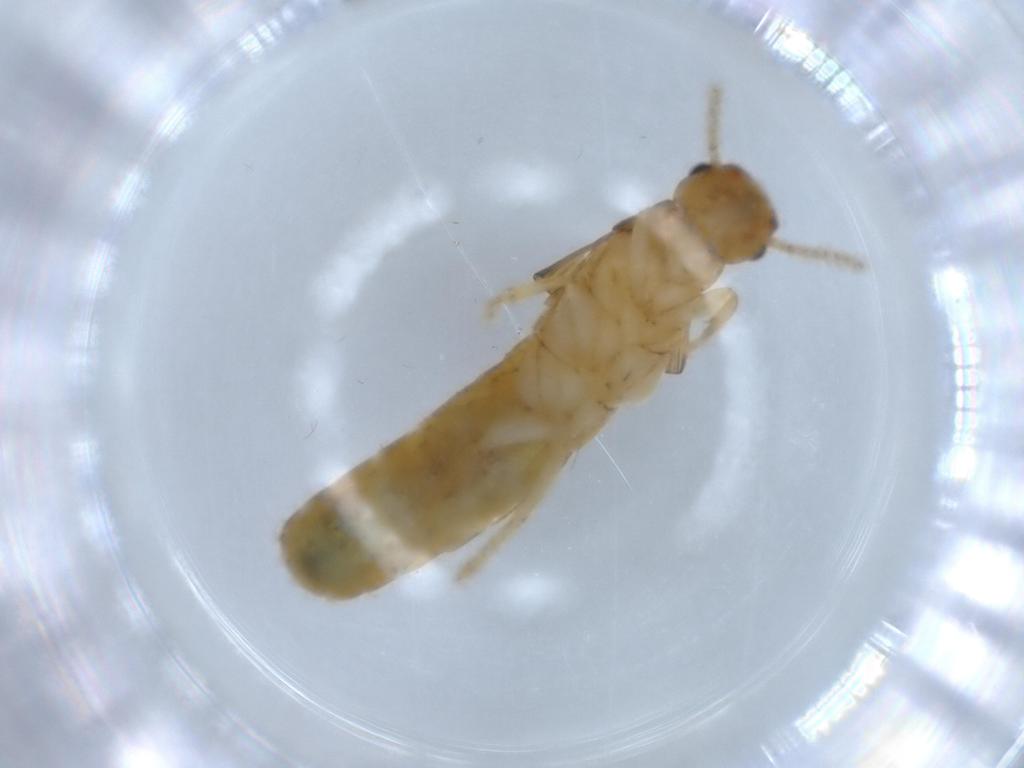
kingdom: Animalia
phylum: Arthropoda
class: Insecta
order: Blattodea
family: Kalotermitidae
